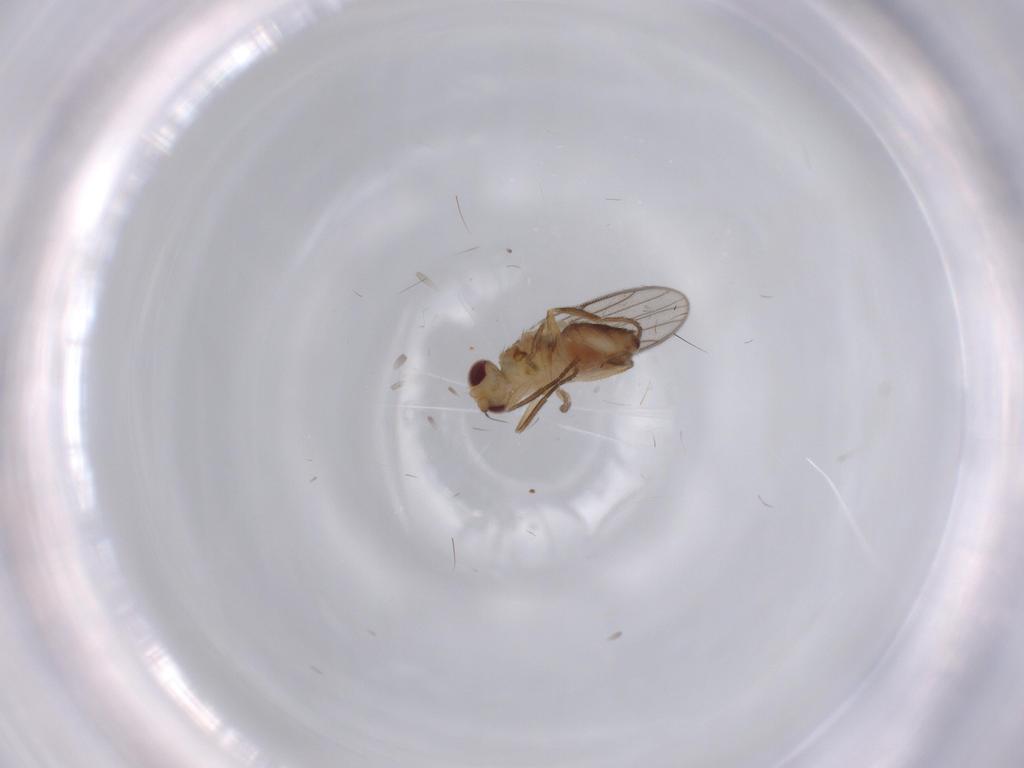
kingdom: Animalia
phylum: Arthropoda
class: Insecta
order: Diptera
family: Chloropidae
